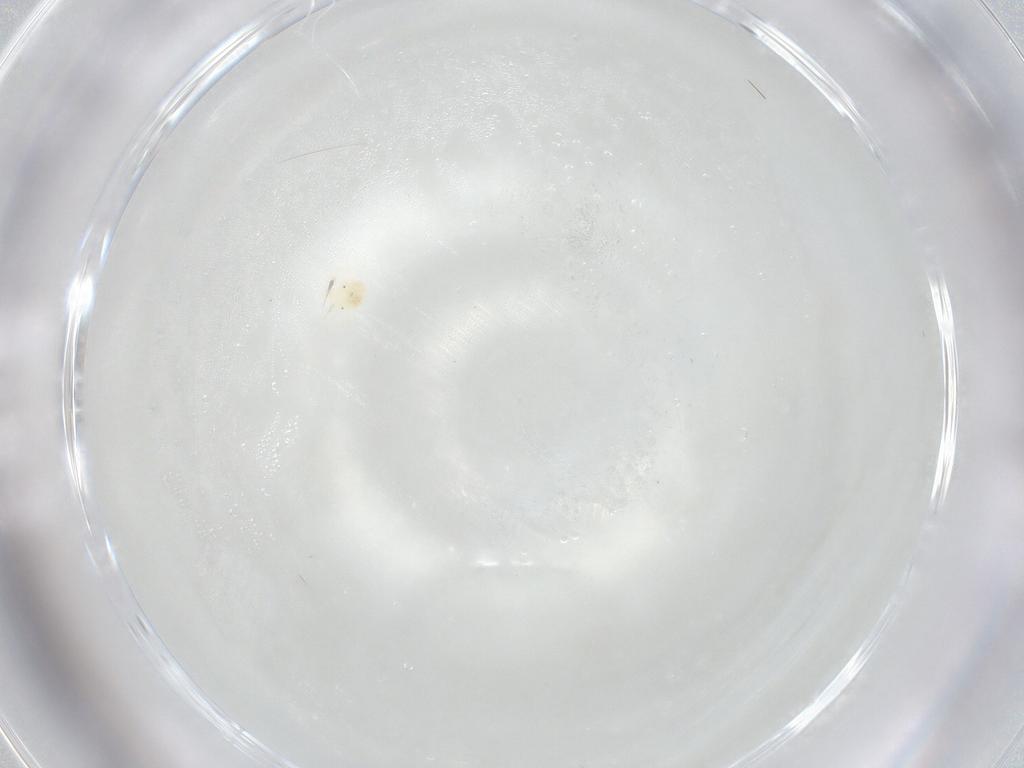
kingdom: Animalia
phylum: Arthropoda
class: Arachnida
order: Trombidiformes
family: Anystidae
